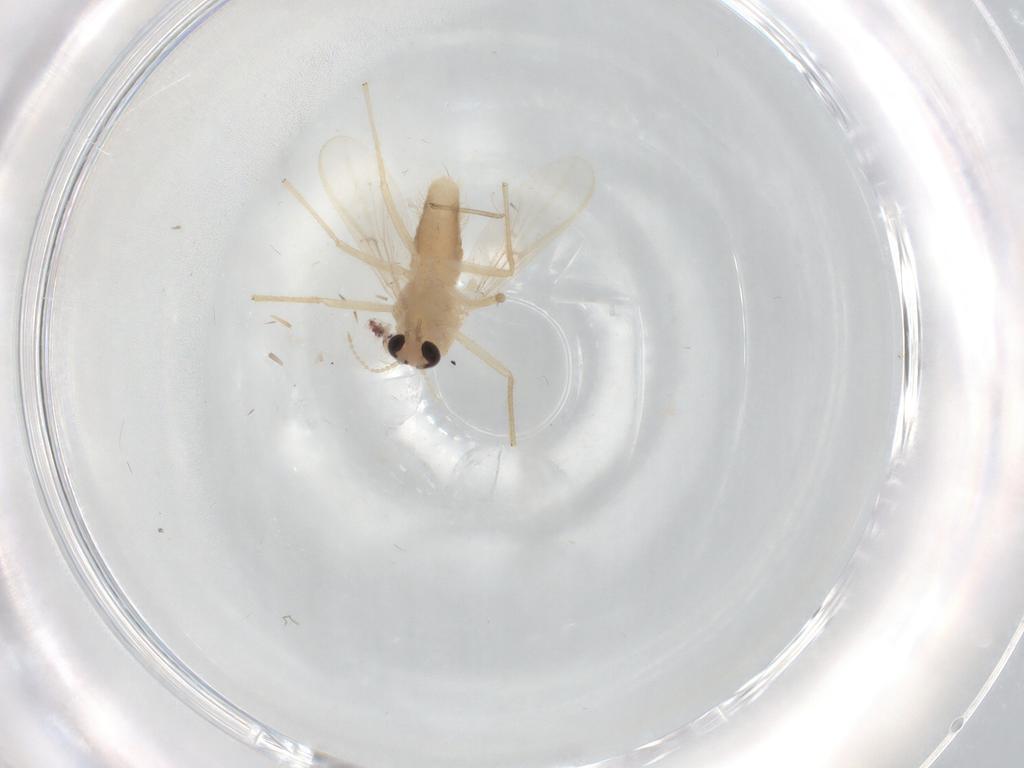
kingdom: Animalia
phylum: Arthropoda
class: Insecta
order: Diptera
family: Chironomidae
